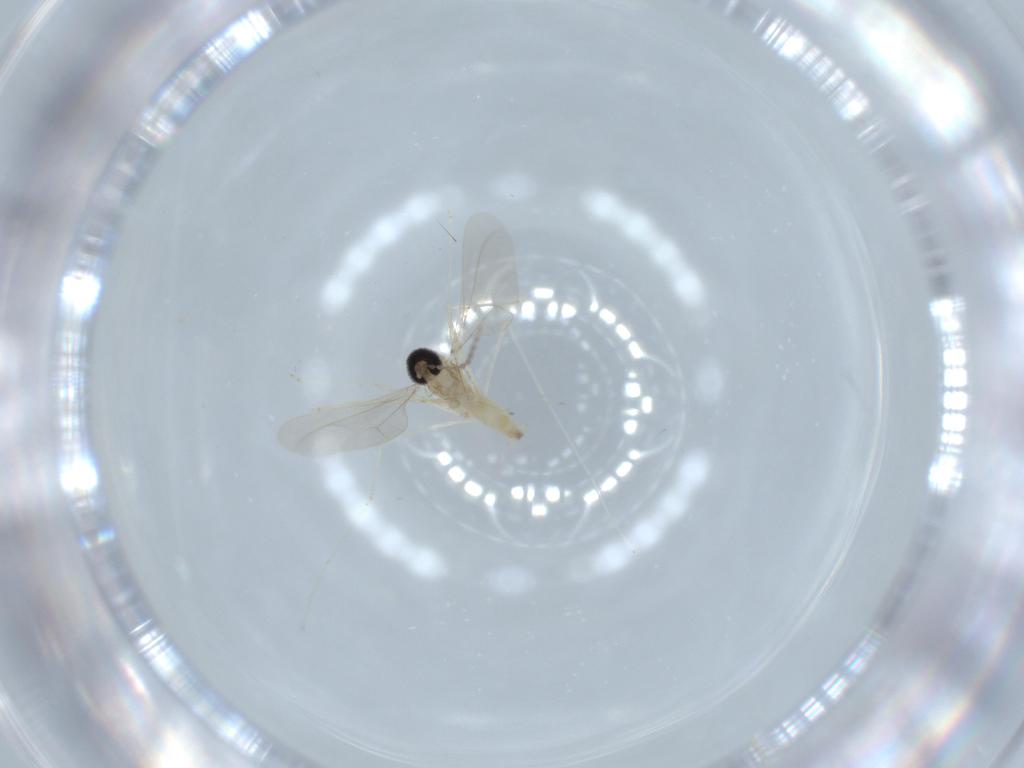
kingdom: Animalia
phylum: Arthropoda
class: Insecta
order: Diptera
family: Cecidomyiidae
